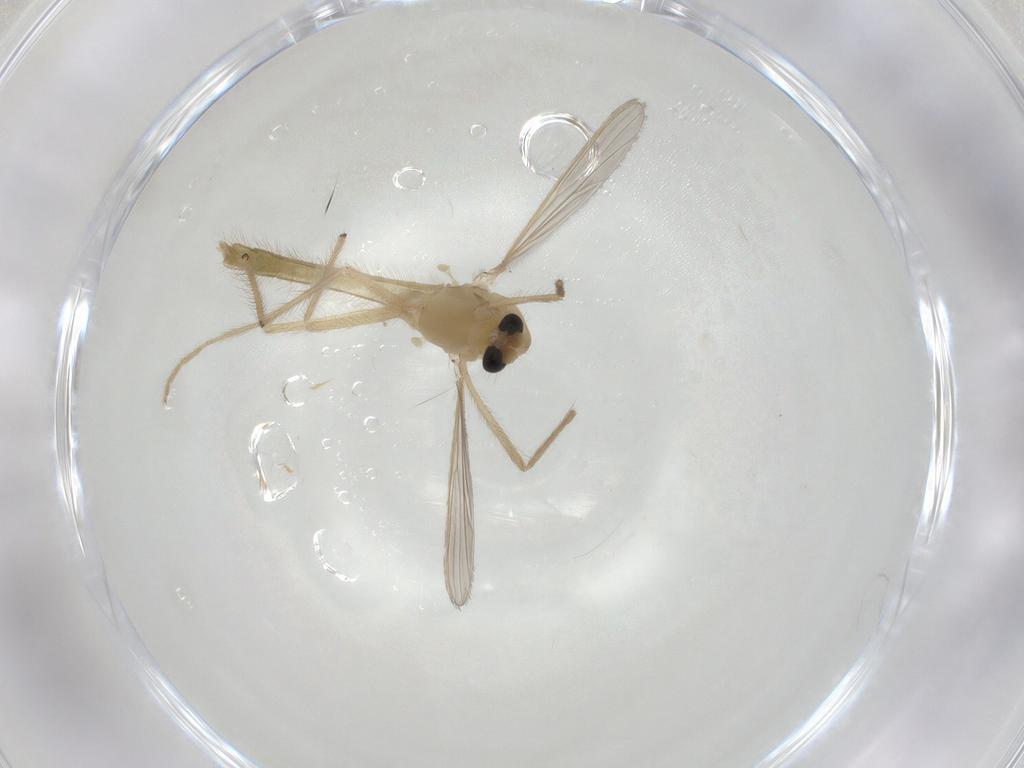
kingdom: Animalia
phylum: Arthropoda
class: Insecta
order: Diptera
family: Chironomidae
